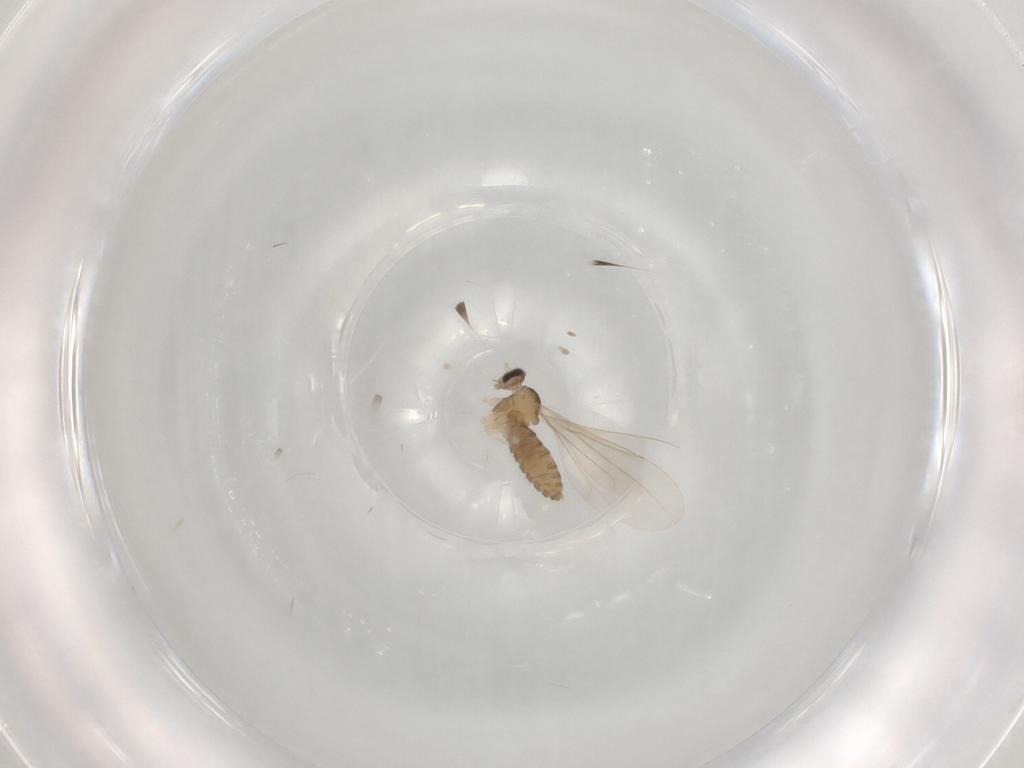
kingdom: Animalia
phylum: Arthropoda
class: Insecta
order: Diptera
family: Cecidomyiidae
